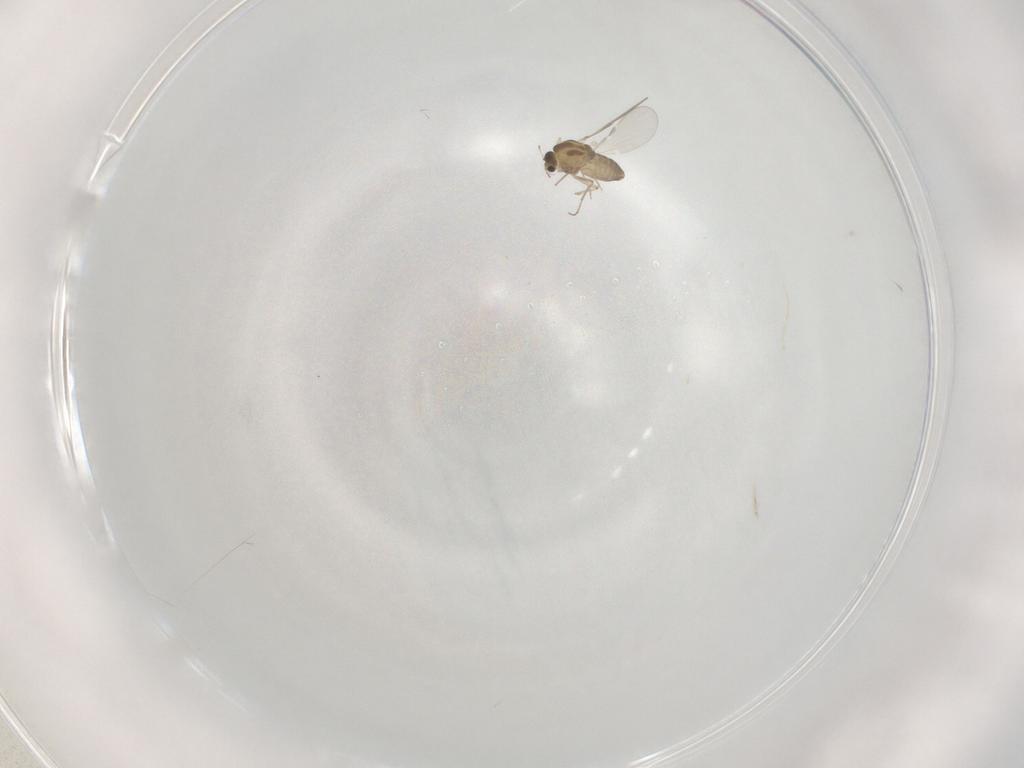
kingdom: Animalia
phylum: Arthropoda
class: Insecta
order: Diptera
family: Chironomidae
